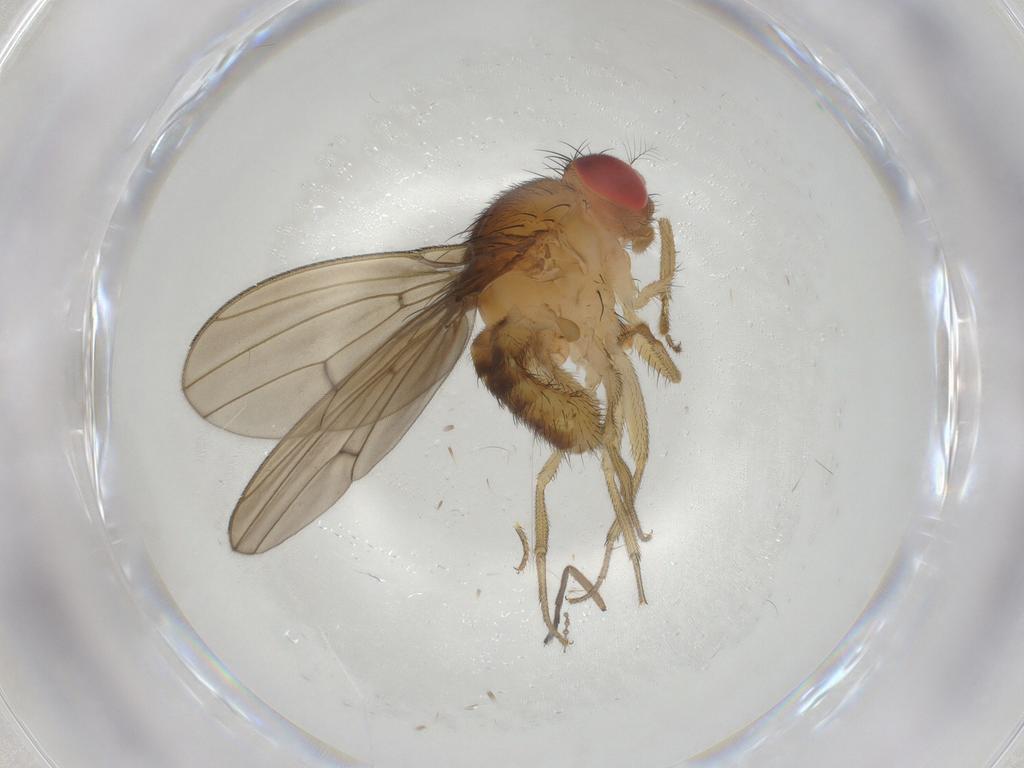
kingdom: Animalia
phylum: Arthropoda
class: Insecta
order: Diptera
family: Drosophilidae
